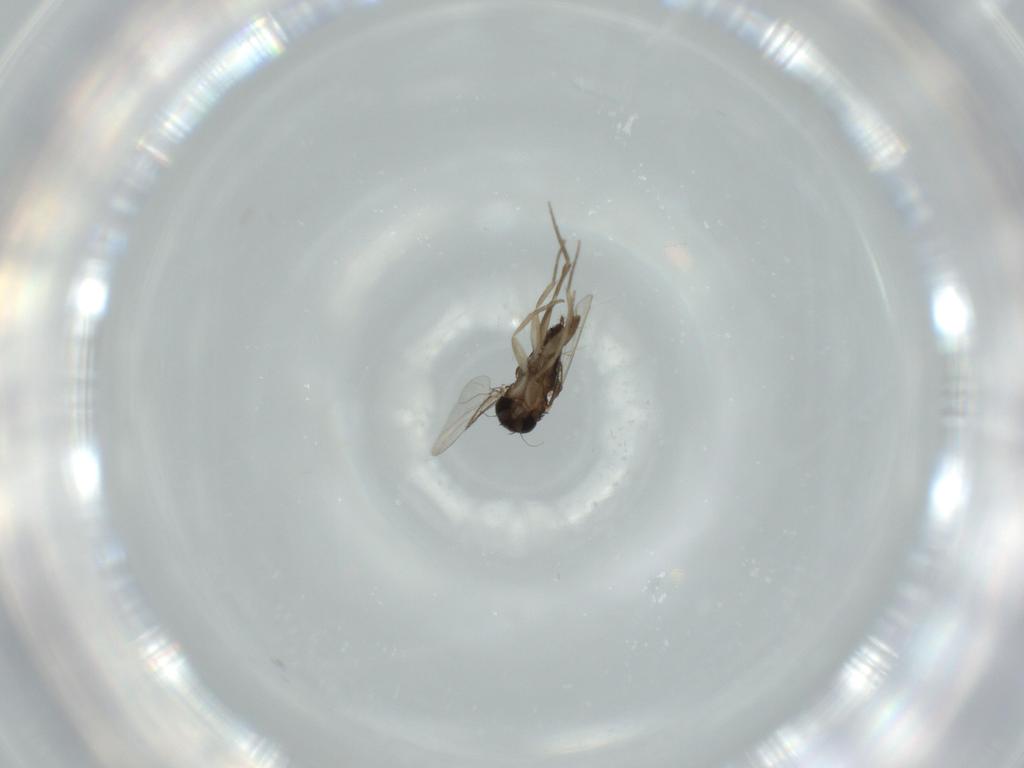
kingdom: Animalia
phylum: Arthropoda
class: Insecta
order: Diptera
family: Phoridae
